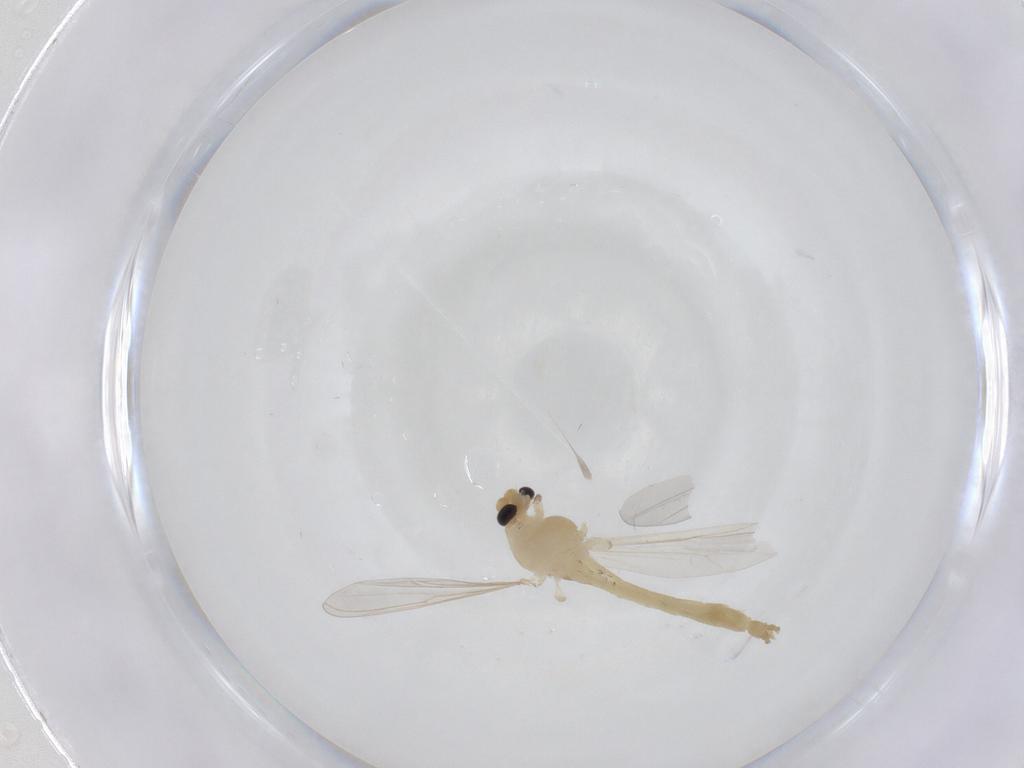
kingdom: Animalia
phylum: Arthropoda
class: Insecta
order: Diptera
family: Chironomidae
